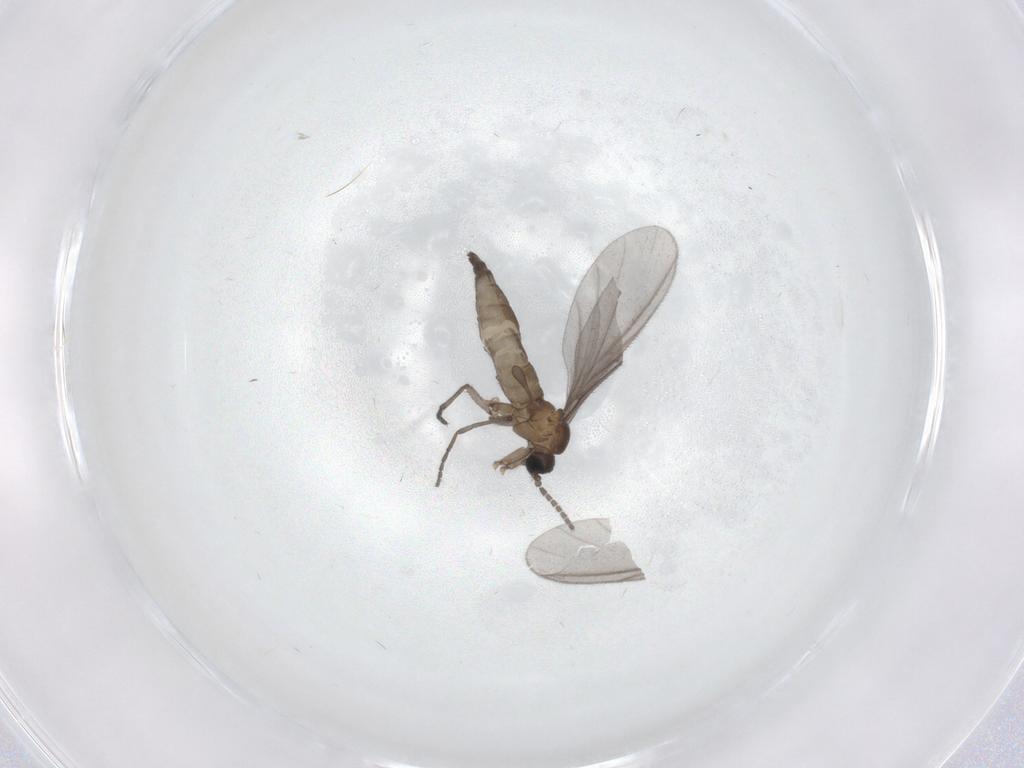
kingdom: Animalia
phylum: Arthropoda
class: Insecta
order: Diptera
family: Sciaridae
